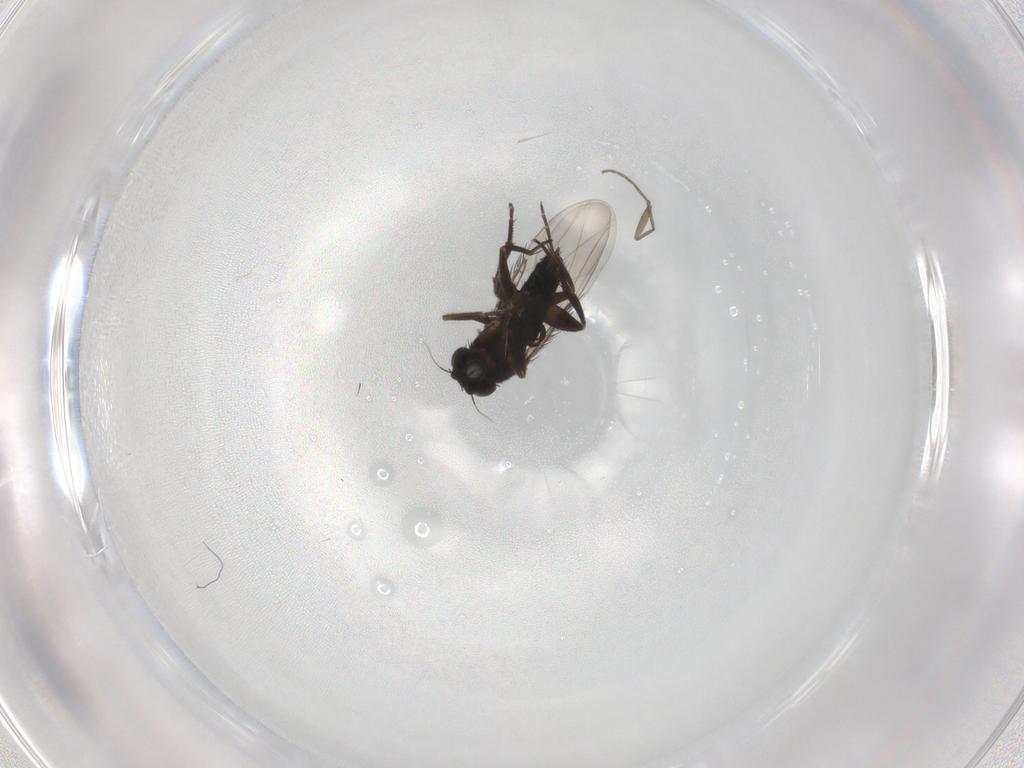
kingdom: Animalia
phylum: Arthropoda
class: Insecta
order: Diptera
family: Phoridae
